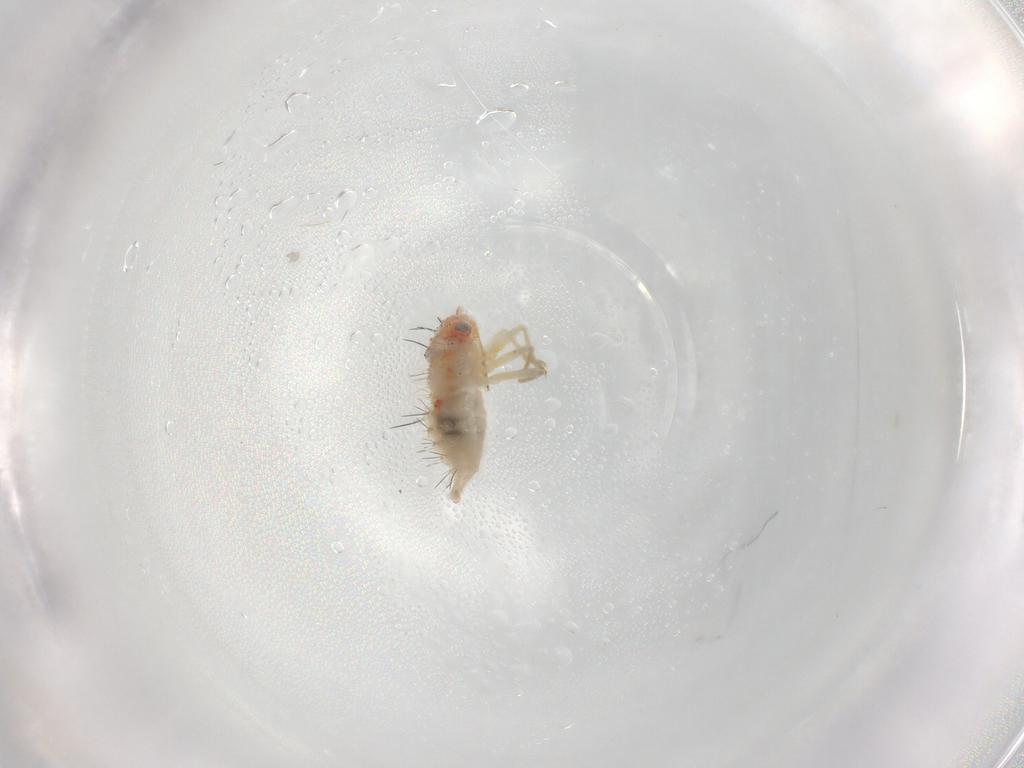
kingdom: Animalia
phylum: Arthropoda
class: Insecta
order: Hemiptera
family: Miridae
